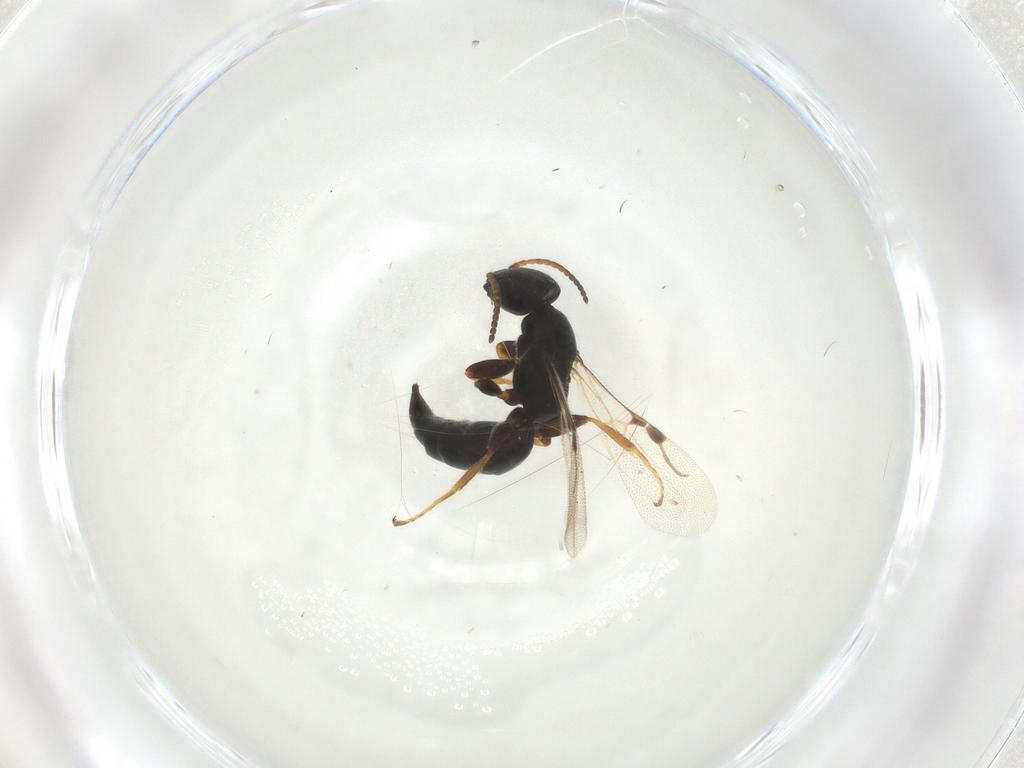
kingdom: Animalia
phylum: Arthropoda
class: Insecta
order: Hymenoptera
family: Bethylidae
